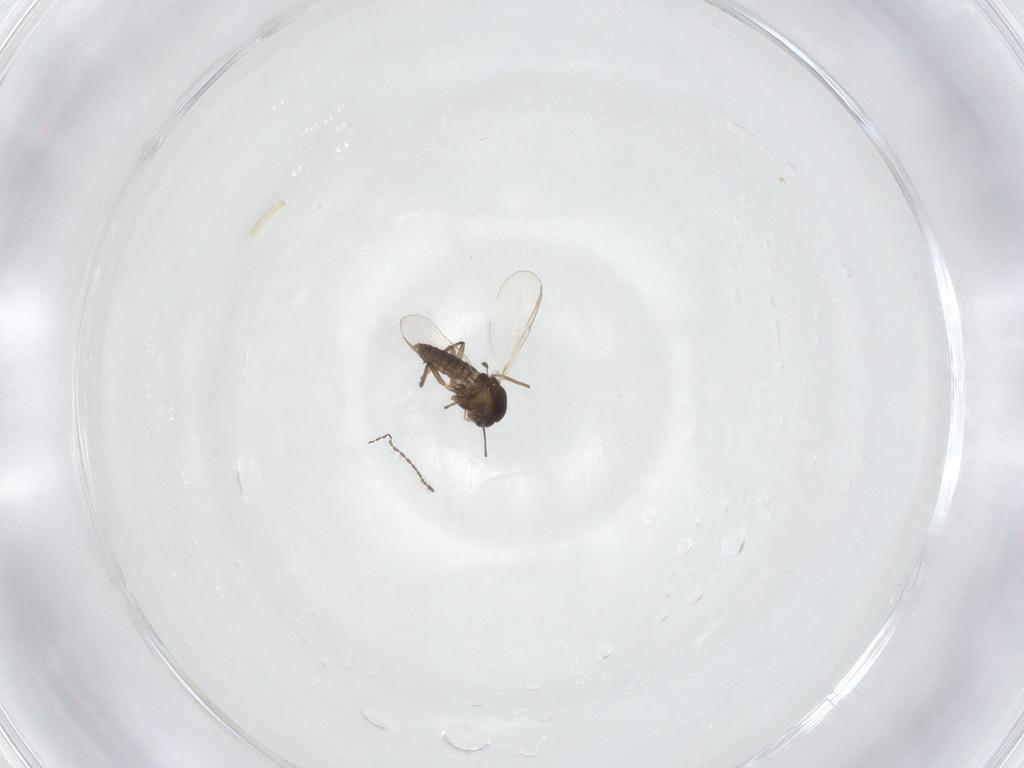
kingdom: Animalia
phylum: Arthropoda
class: Insecta
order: Diptera
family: Chironomidae
